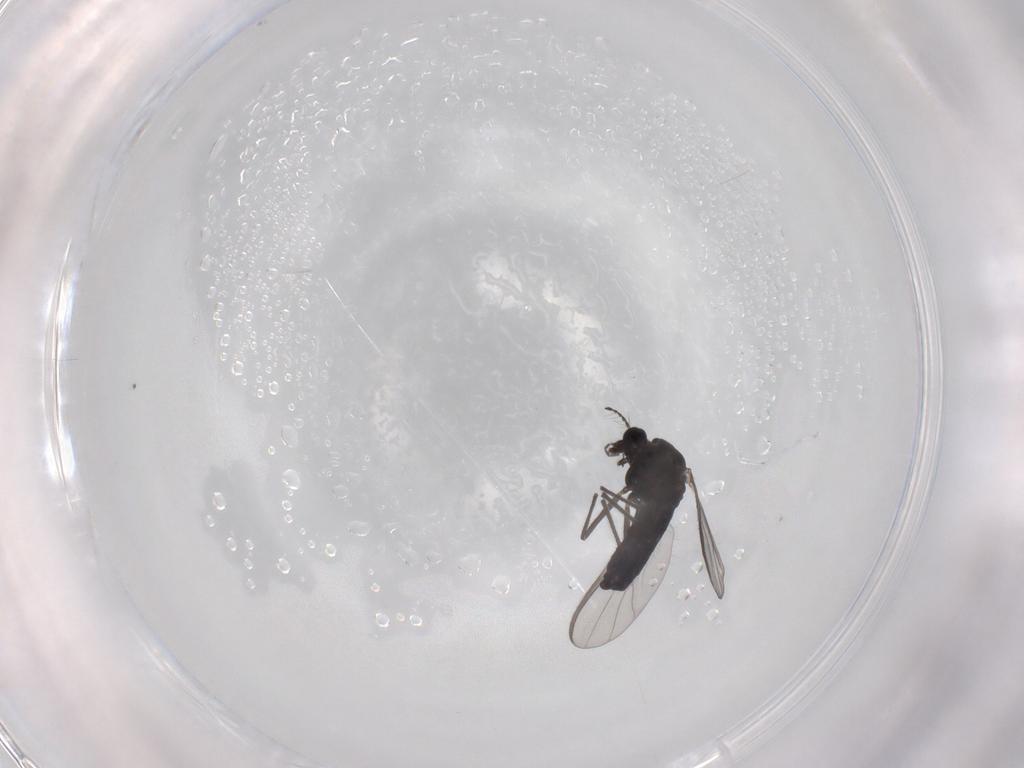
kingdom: Animalia
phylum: Arthropoda
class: Insecta
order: Diptera
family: Chironomidae
